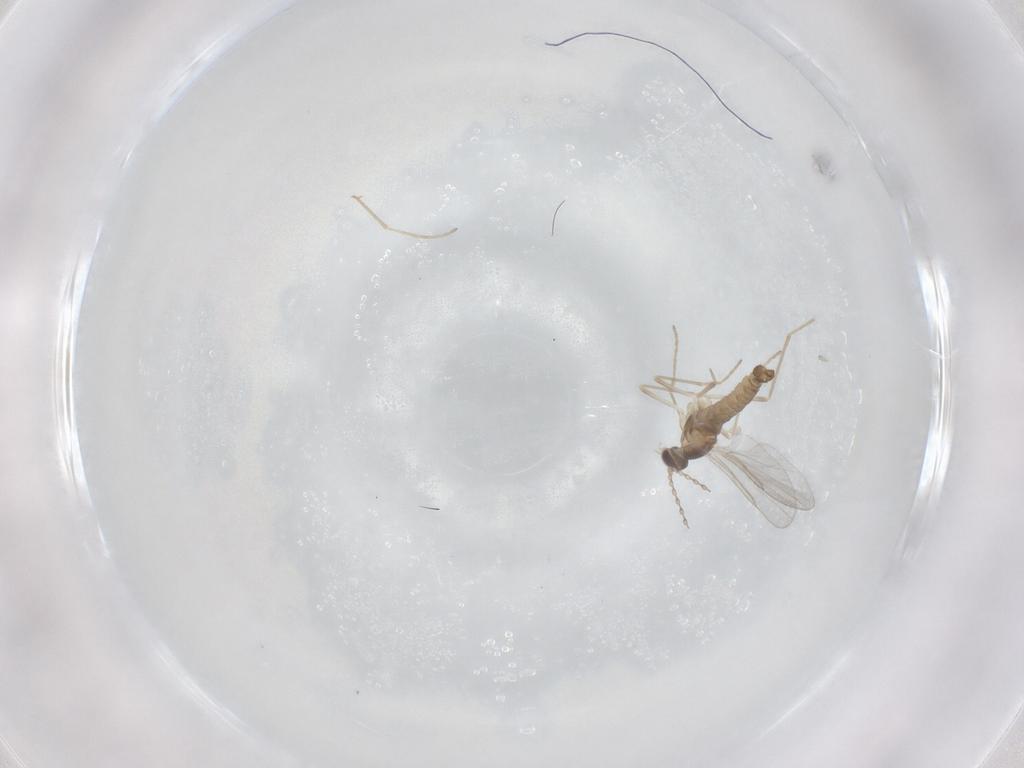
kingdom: Animalia
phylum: Arthropoda
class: Insecta
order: Diptera
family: Cecidomyiidae
